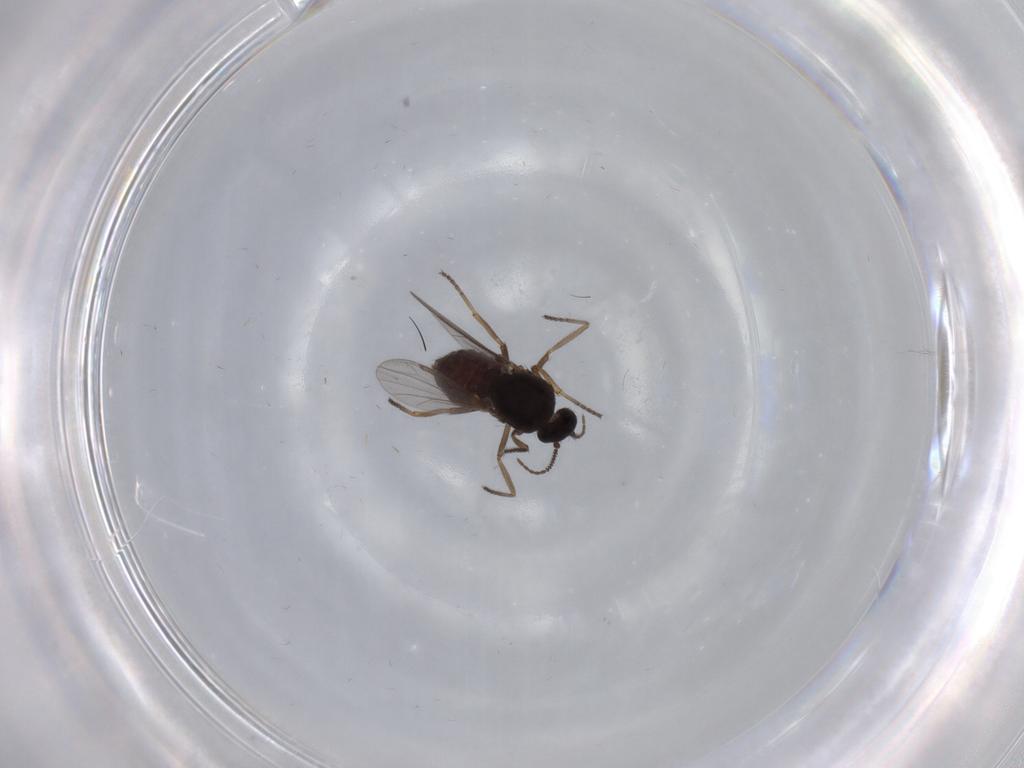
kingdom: Animalia
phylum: Arthropoda
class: Insecta
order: Diptera
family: Ceratopogonidae
